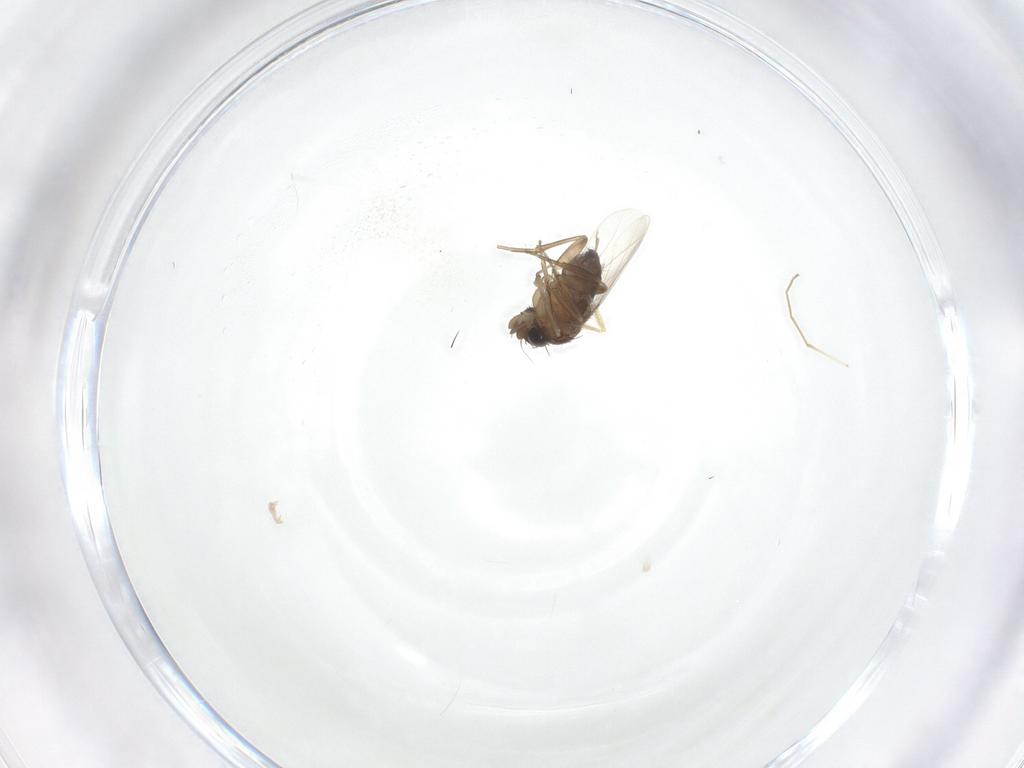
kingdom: Animalia
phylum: Arthropoda
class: Insecta
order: Diptera
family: Phoridae
